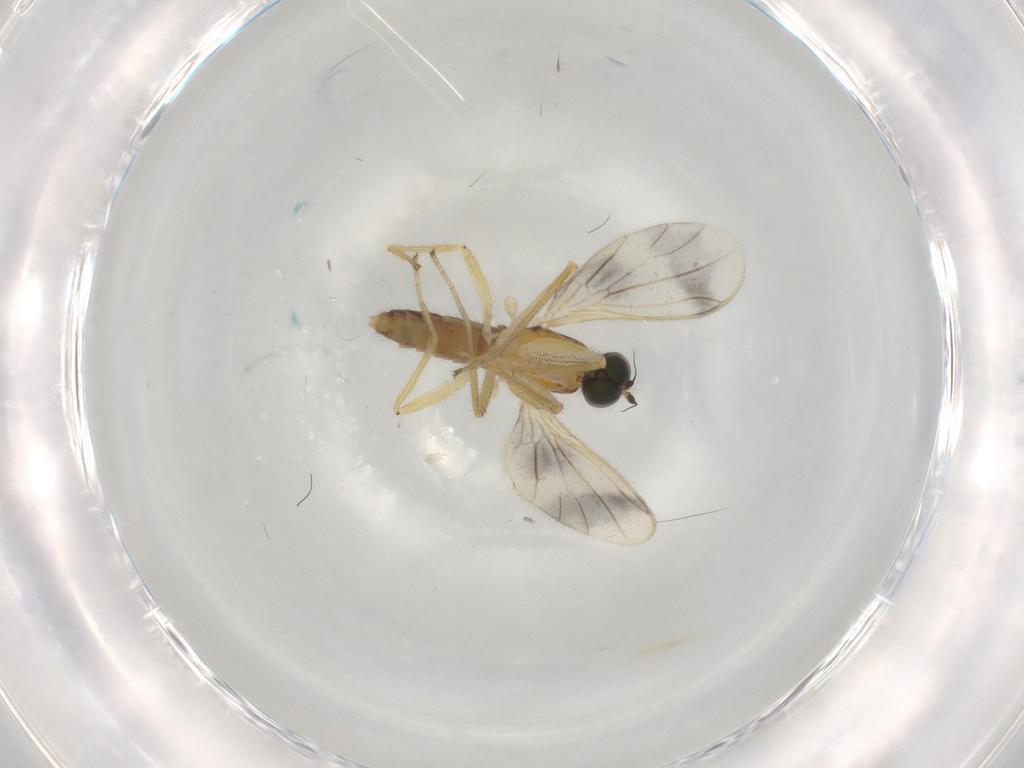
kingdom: Animalia
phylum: Arthropoda
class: Insecta
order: Diptera
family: Empididae
